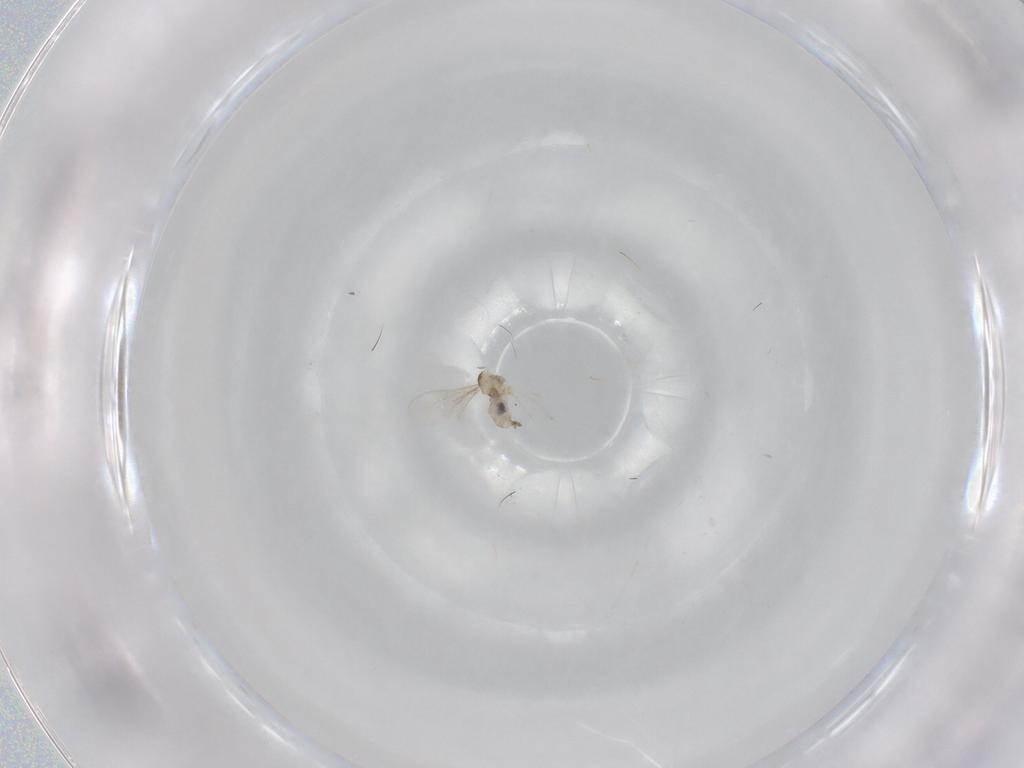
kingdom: Animalia
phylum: Arthropoda
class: Insecta
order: Diptera
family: Cecidomyiidae
